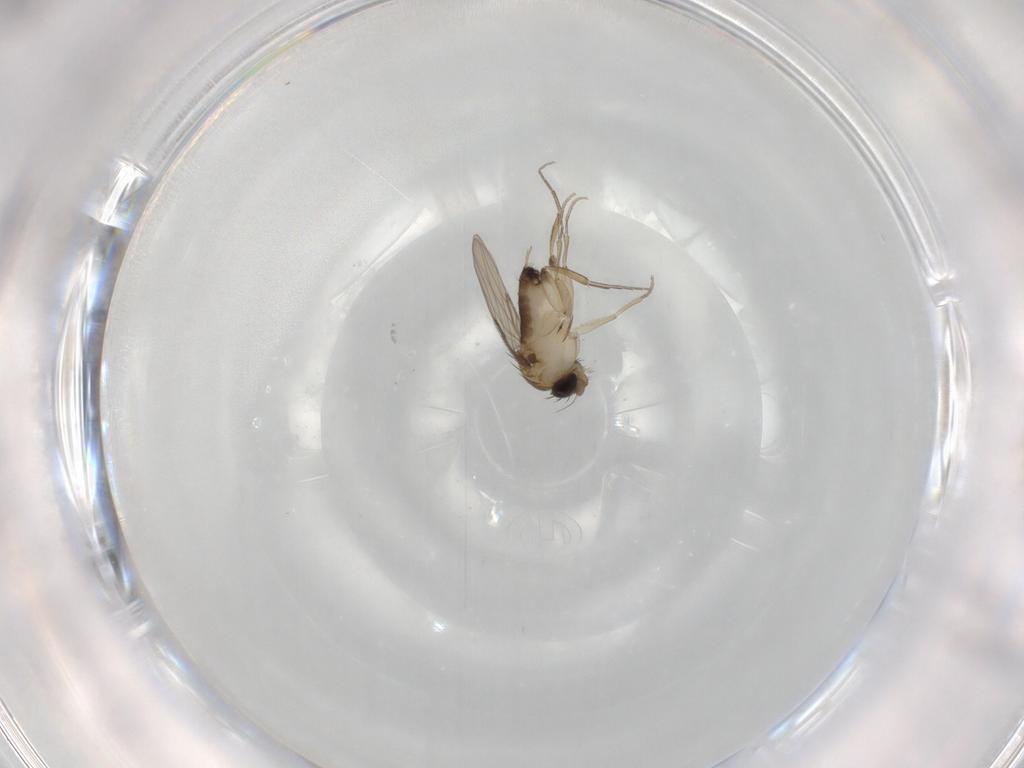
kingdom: Animalia
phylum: Arthropoda
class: Insecta
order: Diptera
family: Phoridae
